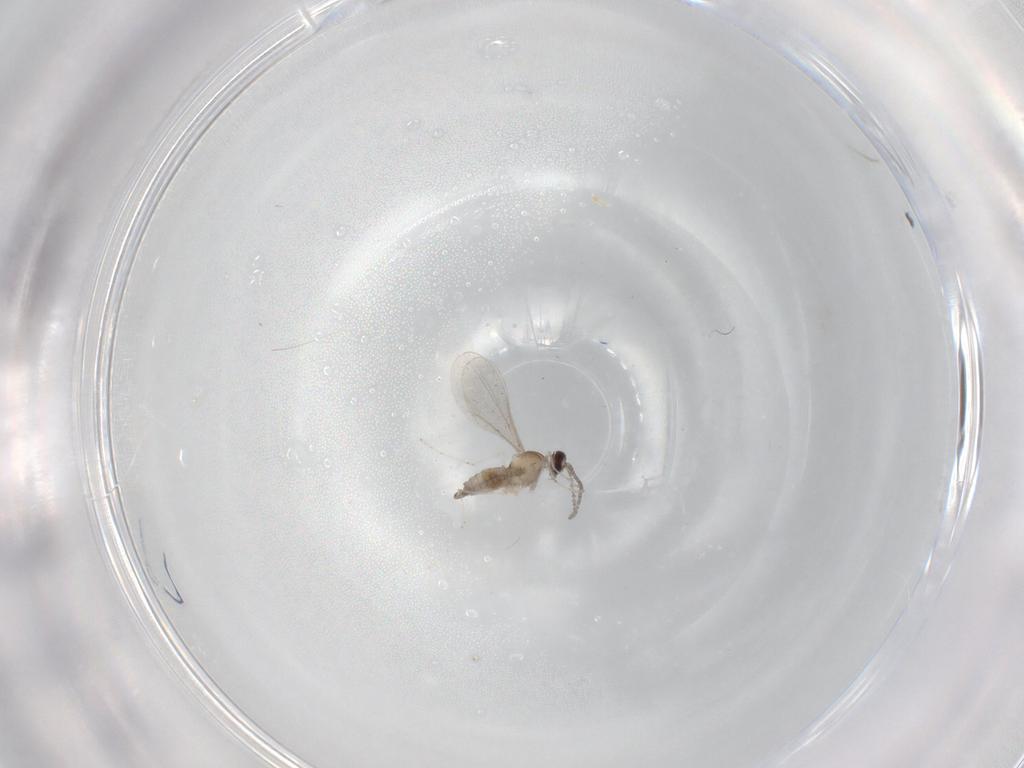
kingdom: Animalia
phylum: Arthropoda
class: Insecta
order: Diptera
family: Cecidomyiidae
